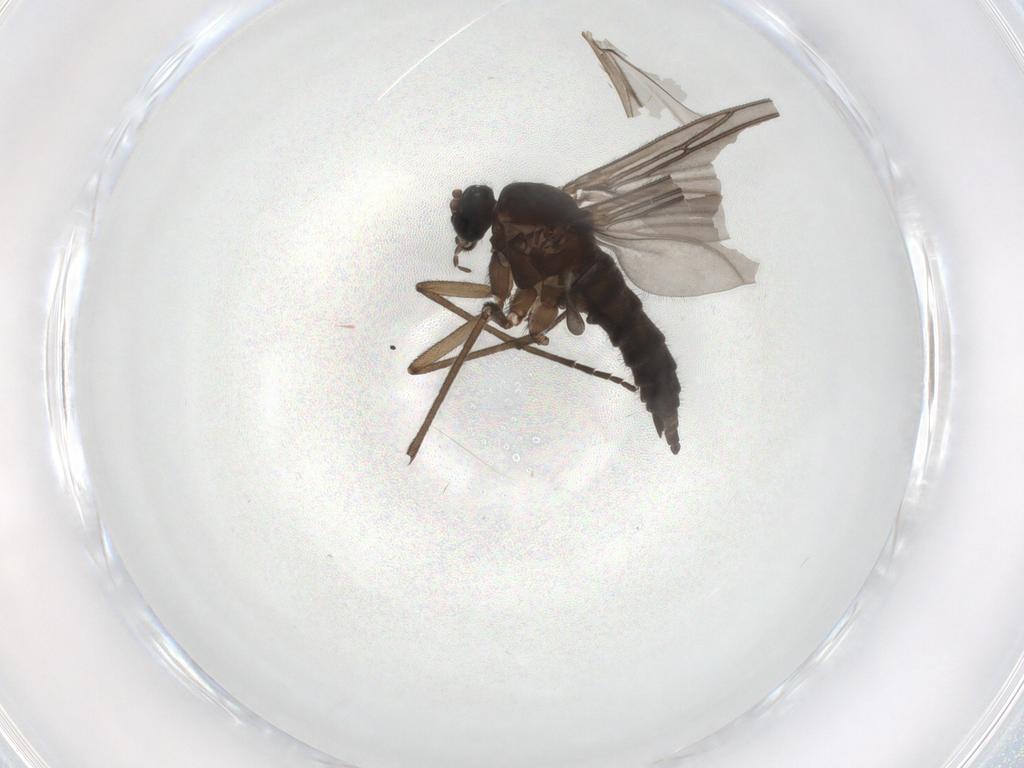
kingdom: Animalia
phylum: Arthropoda
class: Insecta
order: Diptera
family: Sciaridae
